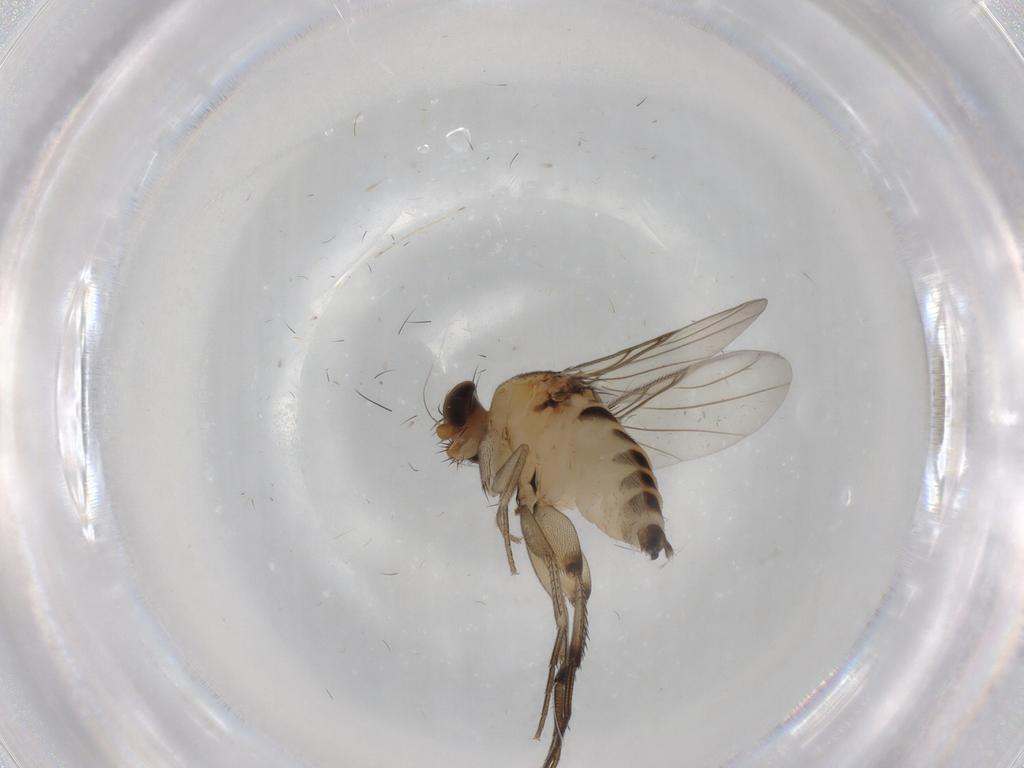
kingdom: Animalia
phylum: Arthropoda
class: Insecta
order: Diptera
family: Phoridae
